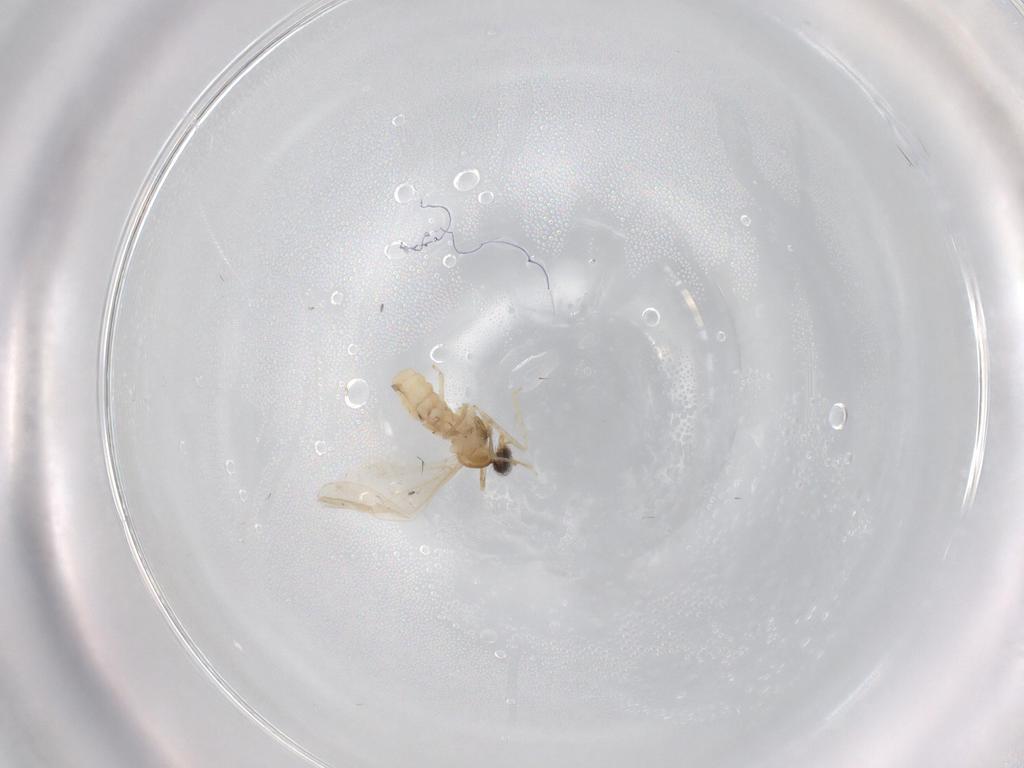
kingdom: Animalia
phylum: Arthropoda
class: Insecta
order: Diptera
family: Cecidomyiidae
